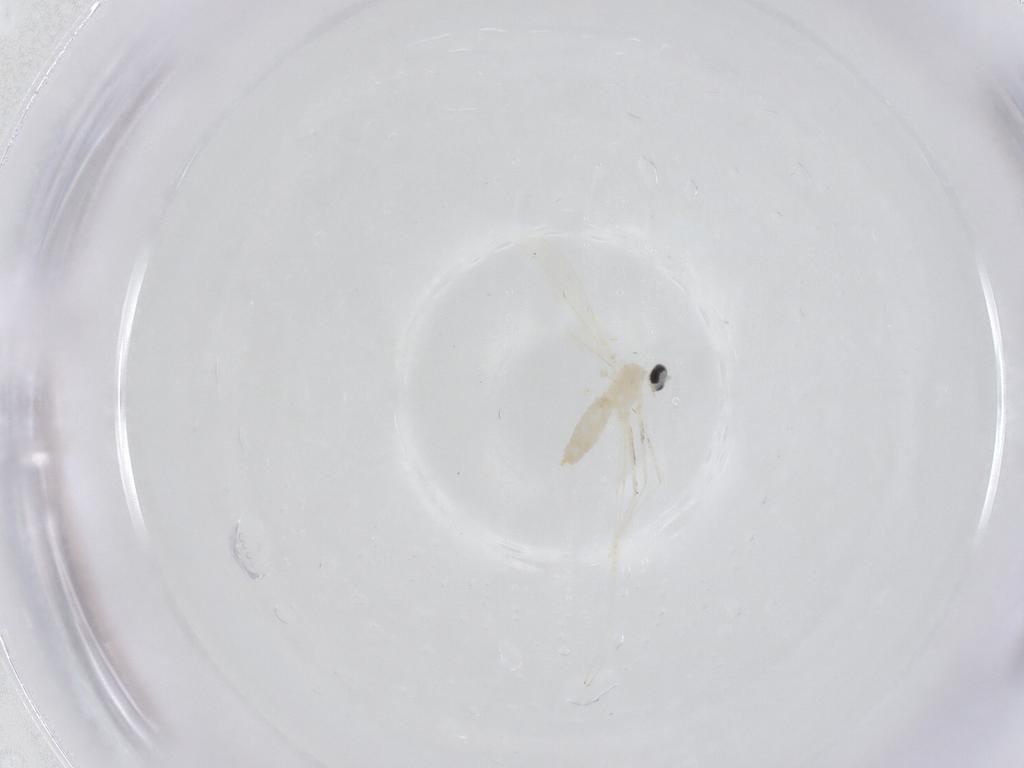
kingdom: Animalia
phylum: Arthropoda
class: Insecta
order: Diptera
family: Cecidomyiidae
